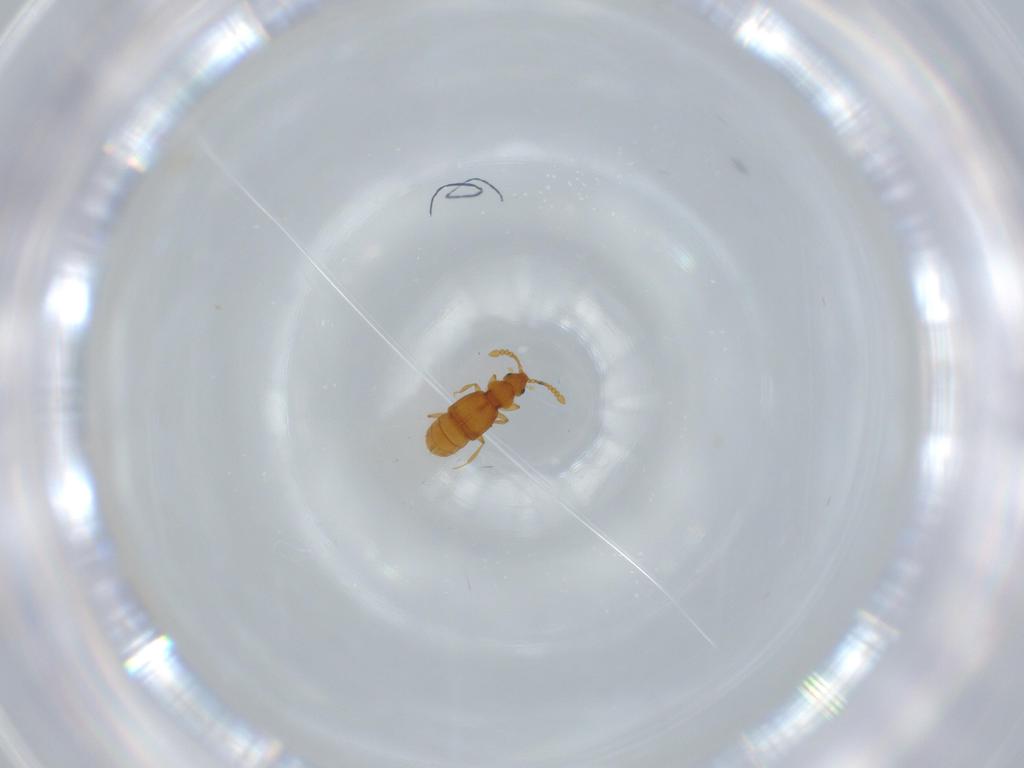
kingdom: Animalia
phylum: Arthropoda
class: Insecta
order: Coleoptera
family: Staphylinidae
